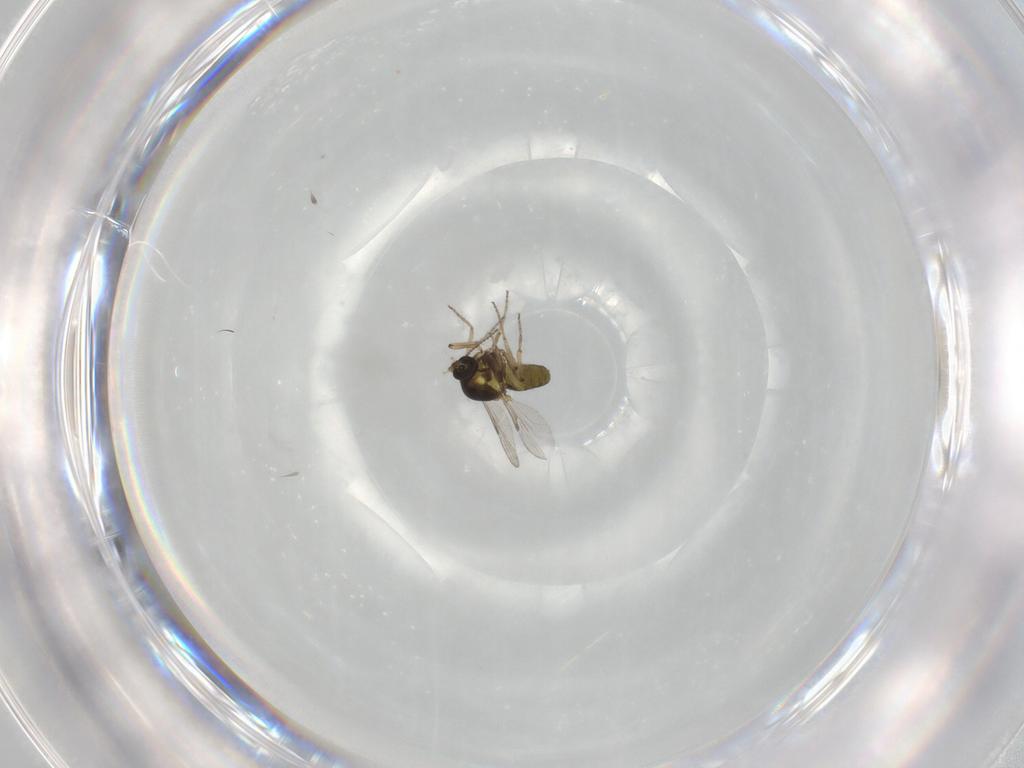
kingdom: Animalia
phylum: Arthropoda
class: Insecta
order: Diptera
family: Ceratopogonidae
